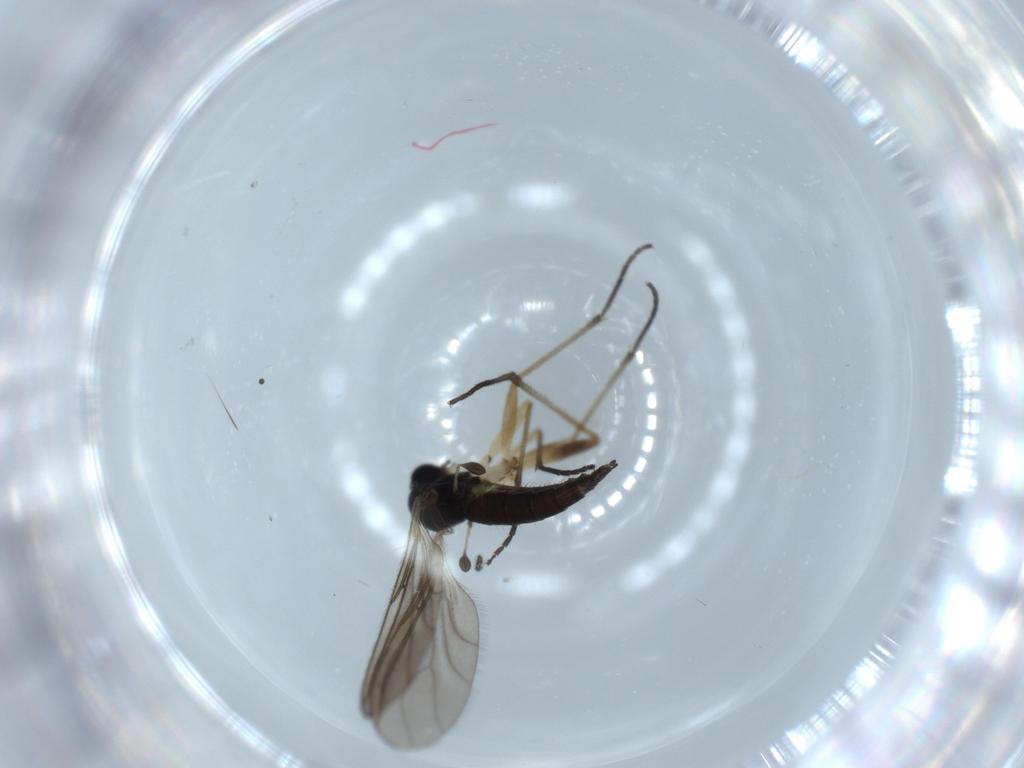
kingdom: Animalia
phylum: Arthropoda
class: Insecta
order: Diptera
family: Sciaridae
